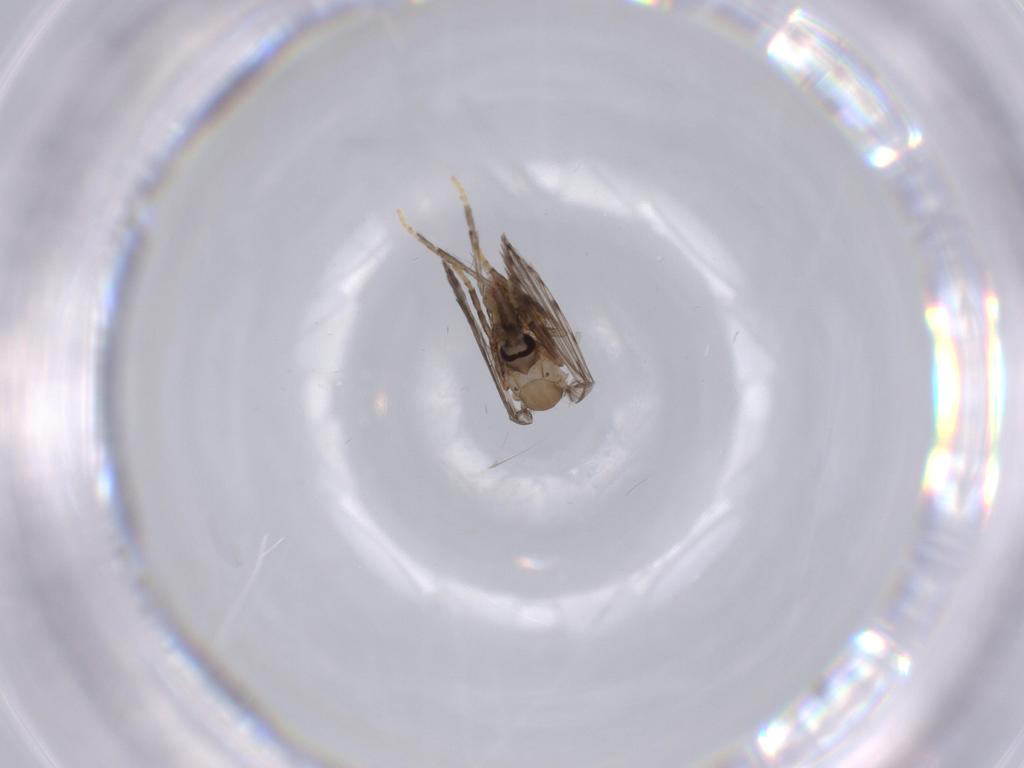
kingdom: Animalia
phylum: Arthropoda
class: Insecta
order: Diptera
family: Psychodidae
